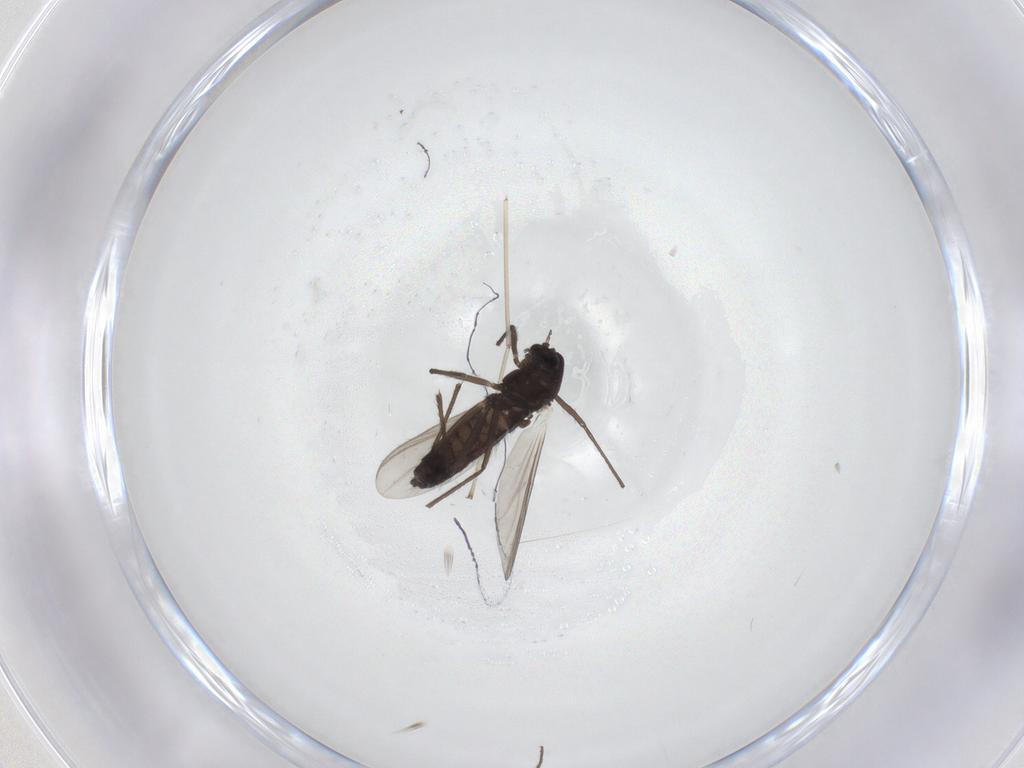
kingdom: Animalia
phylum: Arthropoda
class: Insecta
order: Diptera
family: Chironomidae
